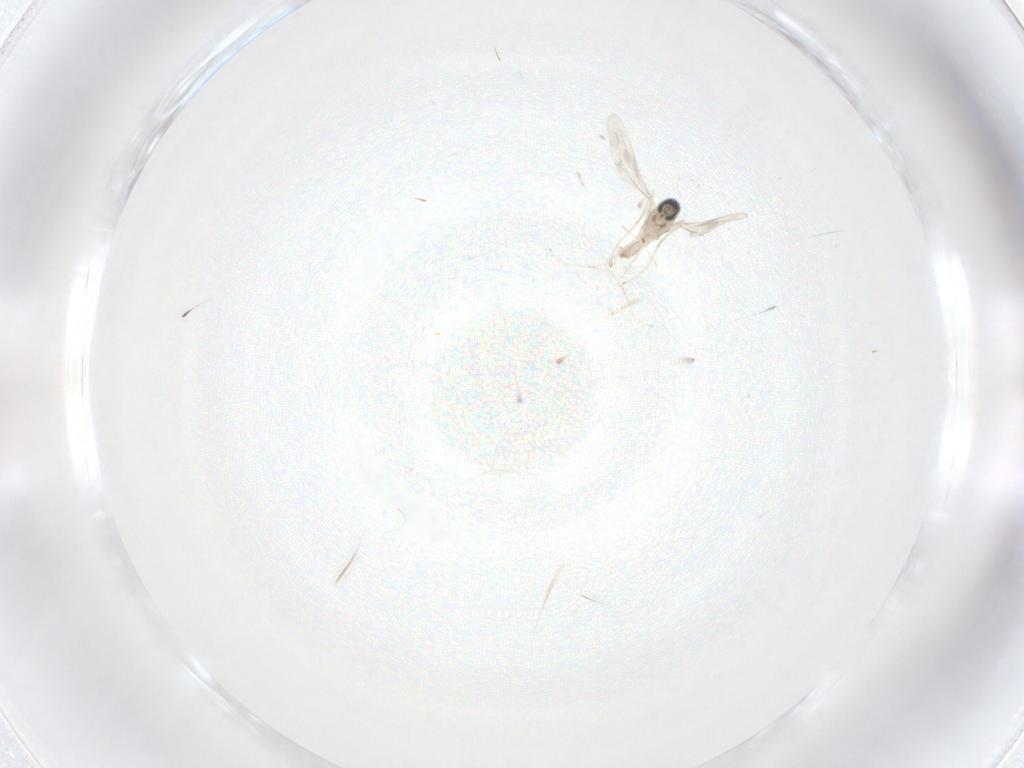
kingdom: Animalia
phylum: Arthropoda
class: Insecta
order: Diptera
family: Cecidomyiidae
